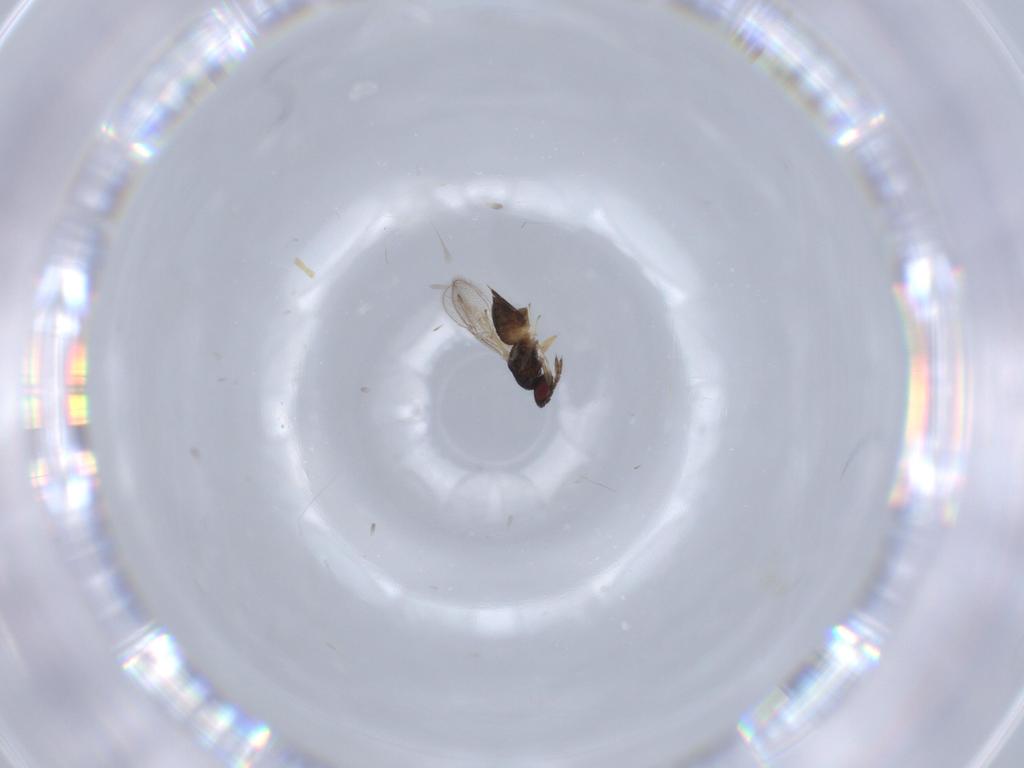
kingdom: Animalia
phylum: Arthropoda
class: Insecta
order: Hymenoptera
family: Eulophidae
